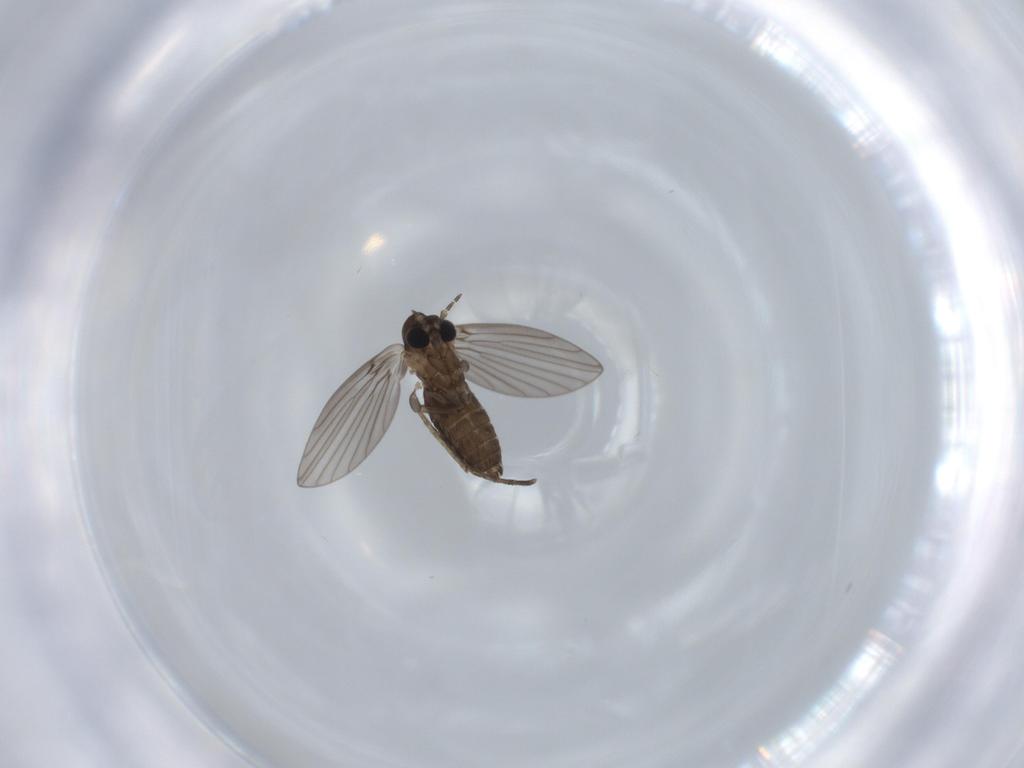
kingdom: Animalia
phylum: Arthropoda
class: Insecta
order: Diptera
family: Psychodidae
